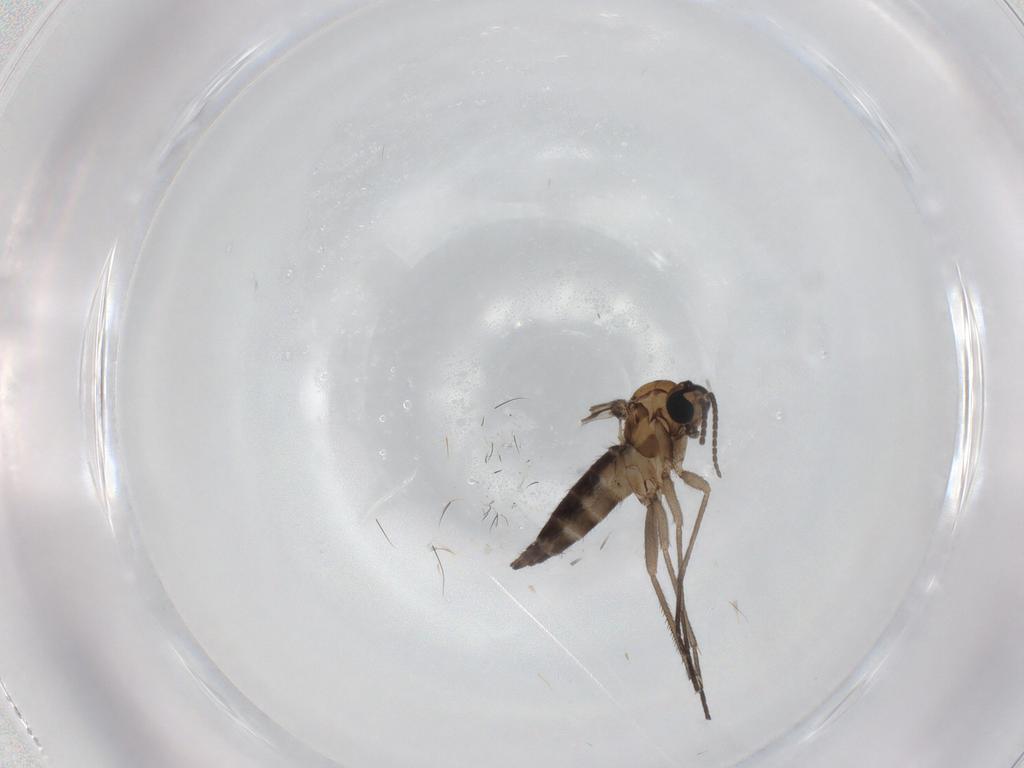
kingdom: Animalia
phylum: Arthropoda
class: Insecta
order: Diptera
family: Sciaridae
